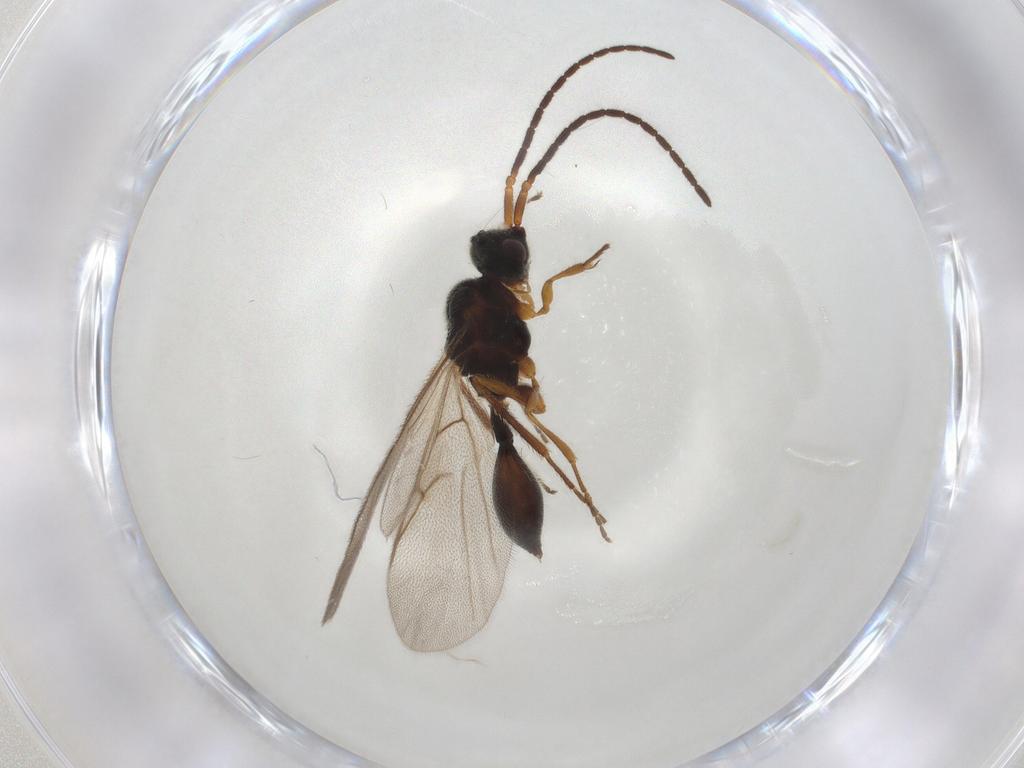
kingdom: Animalia
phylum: Arthropoda
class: Insecta
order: Hymenoptera
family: Diapriidae
